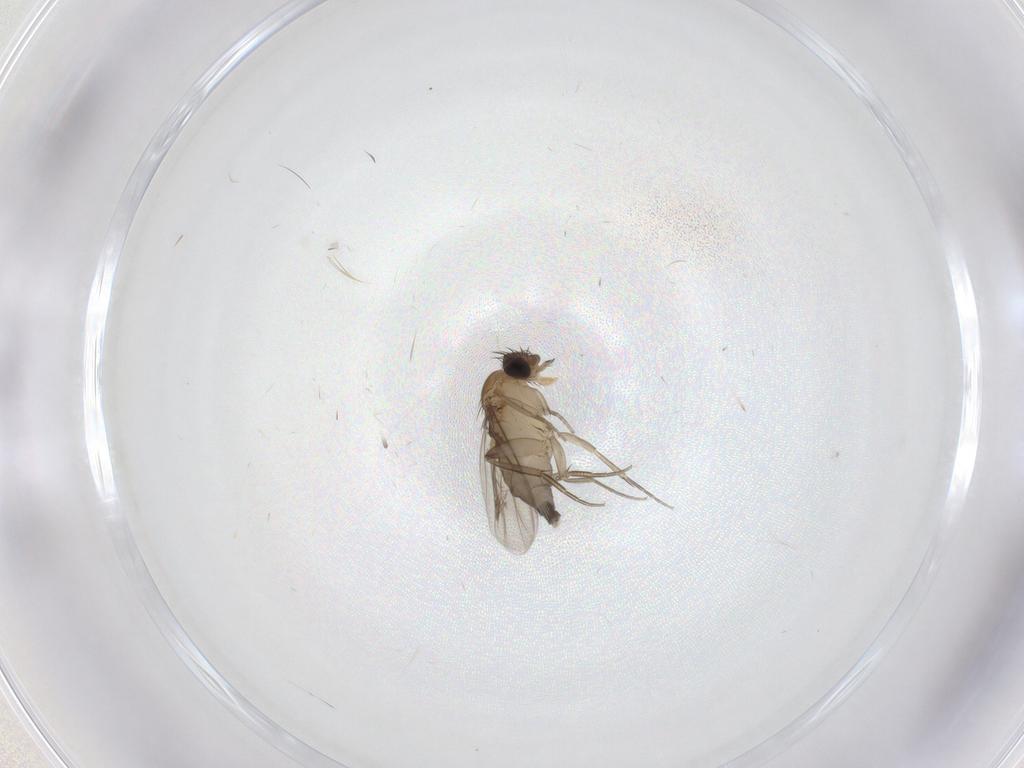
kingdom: Animalia
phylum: Arthropoda
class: Insecta
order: Diptera
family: Phoridae
